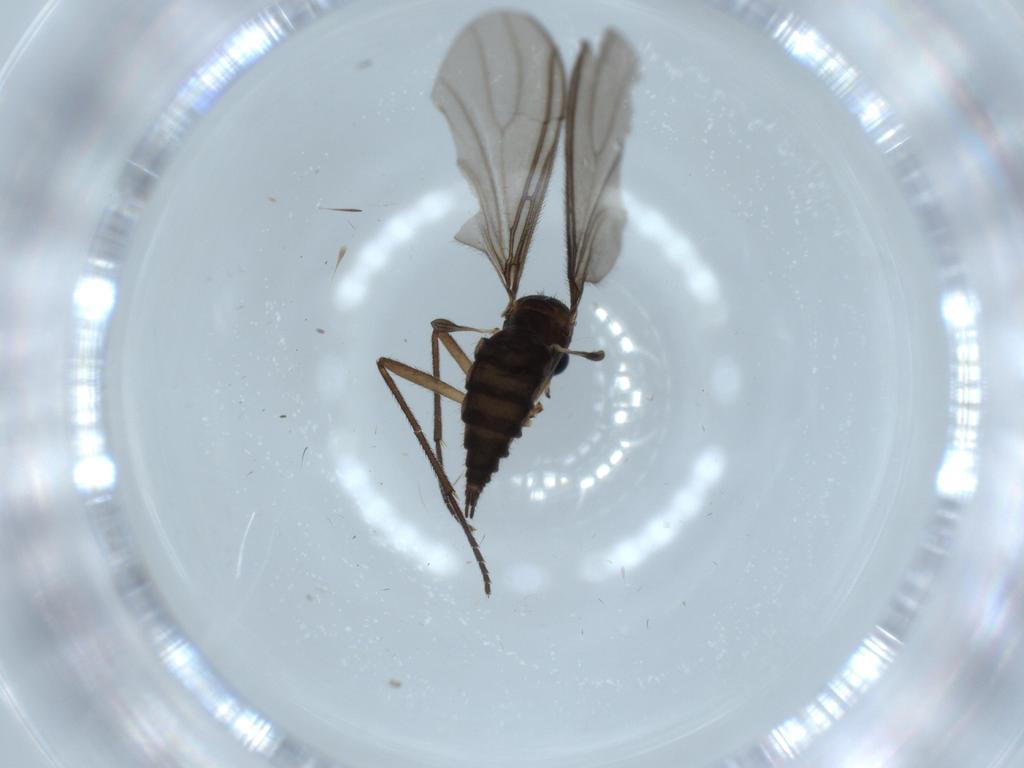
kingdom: Animalia
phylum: Arthropoda
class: Insecta
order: Diptera
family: Sciaridae
